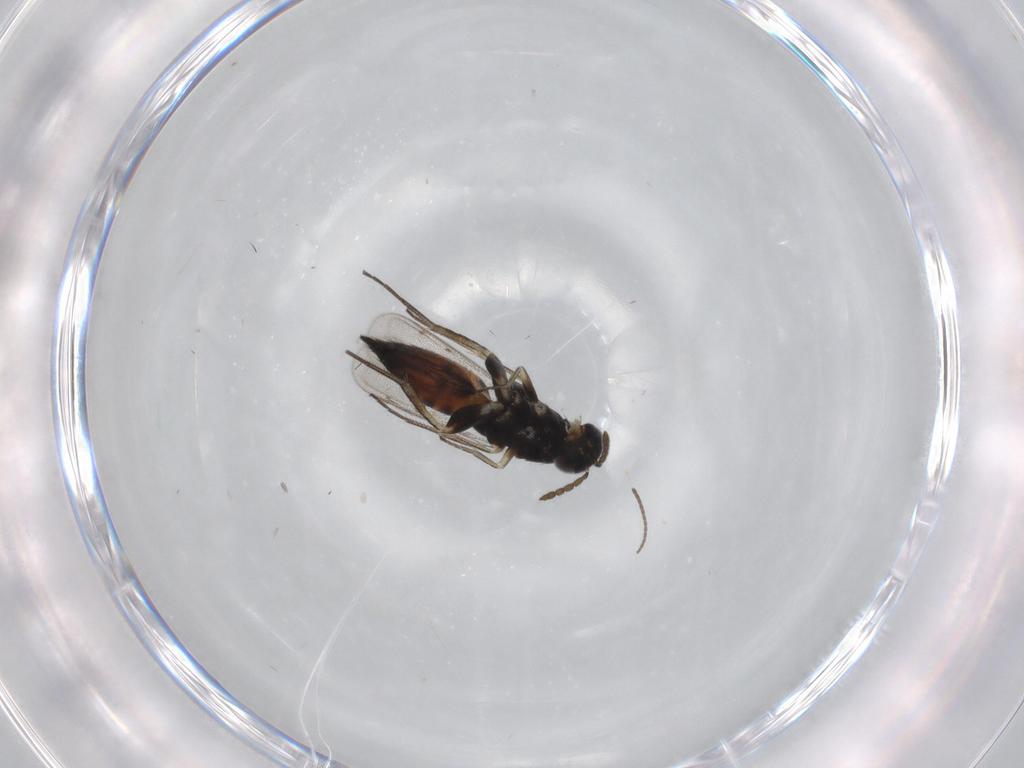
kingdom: Animalia
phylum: Arthropoda
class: Insecta
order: Hymenoptera
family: Eulophidae
